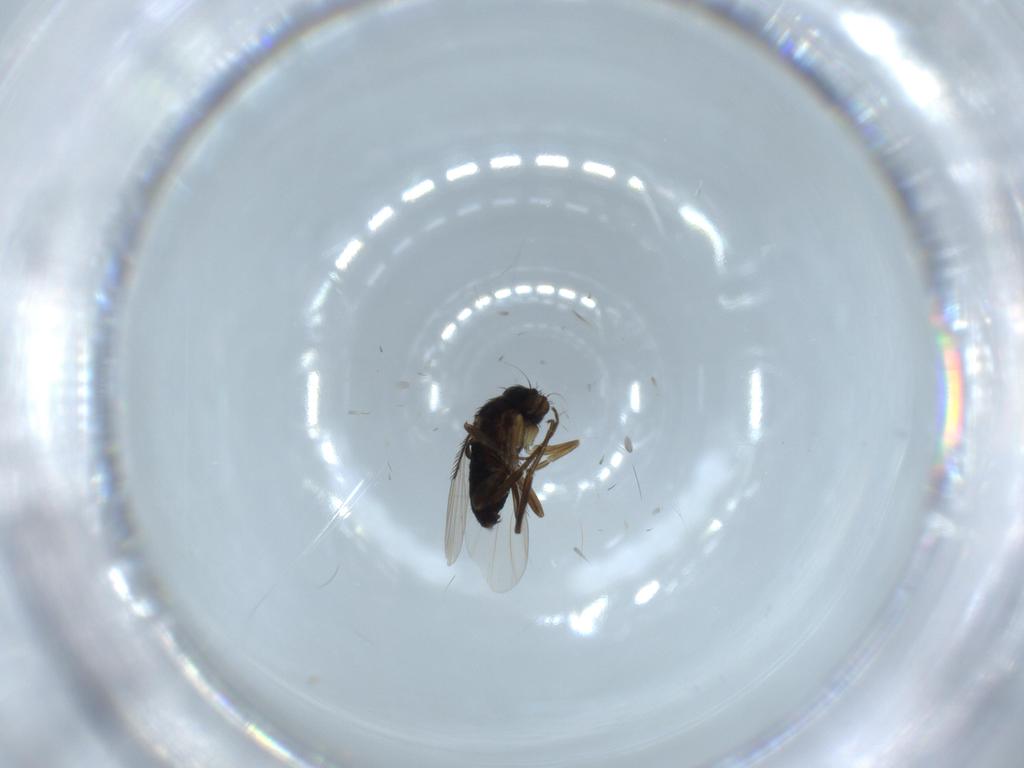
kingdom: Animalia
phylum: Arthropoda
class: Insecta
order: Diptera
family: Phoridae
